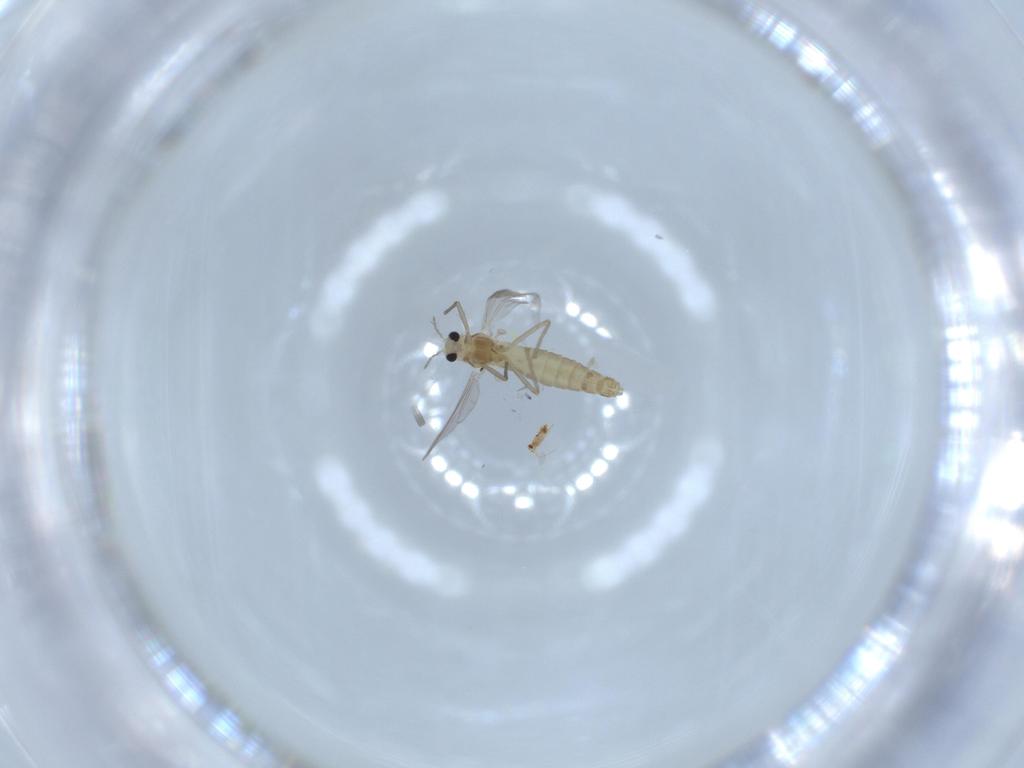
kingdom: Animalia
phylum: Arthropoda
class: Insecta
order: Diptera
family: Chironomidae
